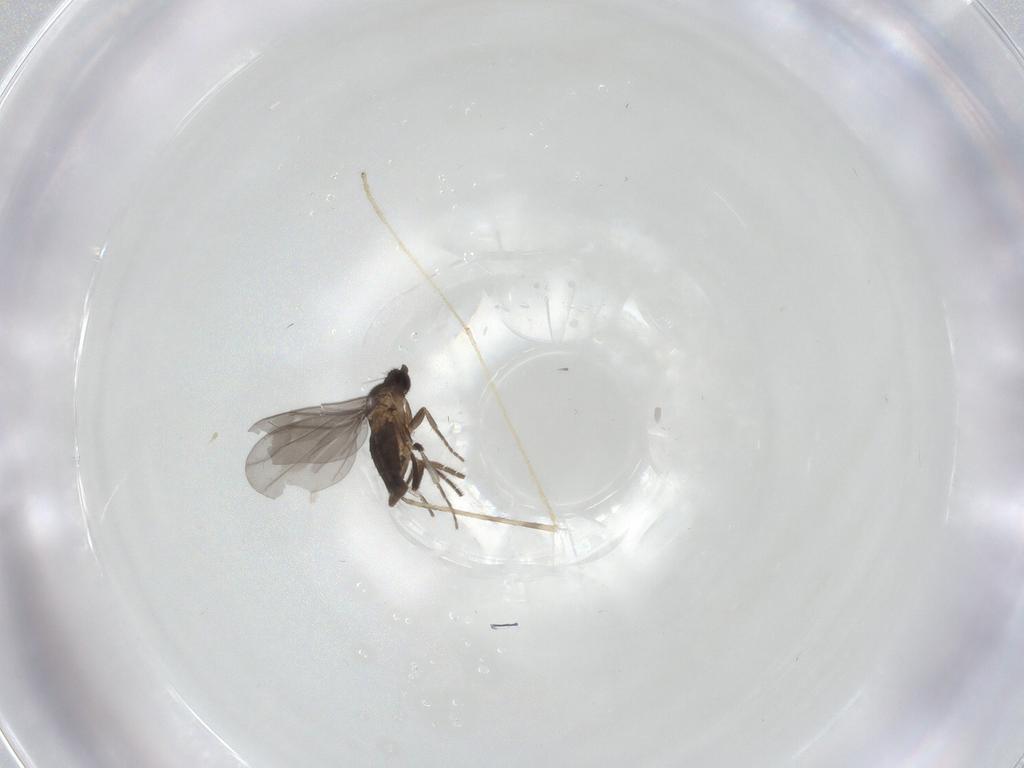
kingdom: Animalia
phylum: Arthropoda
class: Insecta
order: Diptera
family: Phoridae
